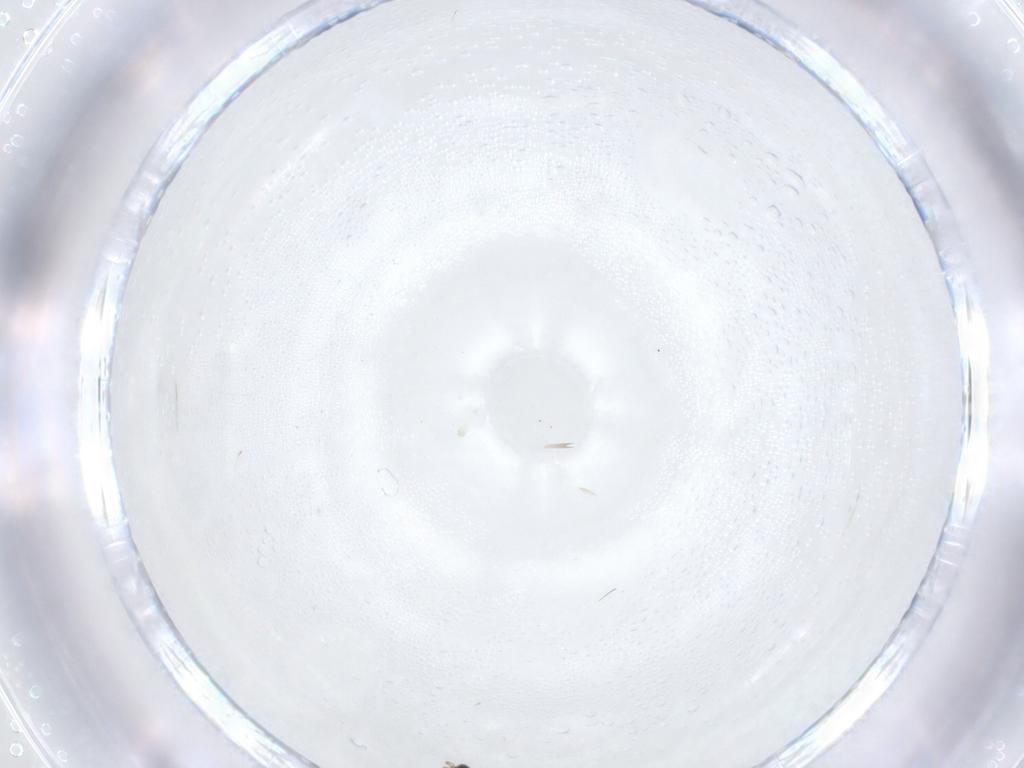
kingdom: Animalia
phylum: Arthropoda
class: Insecta
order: Diptera
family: Cecidomyiidae
